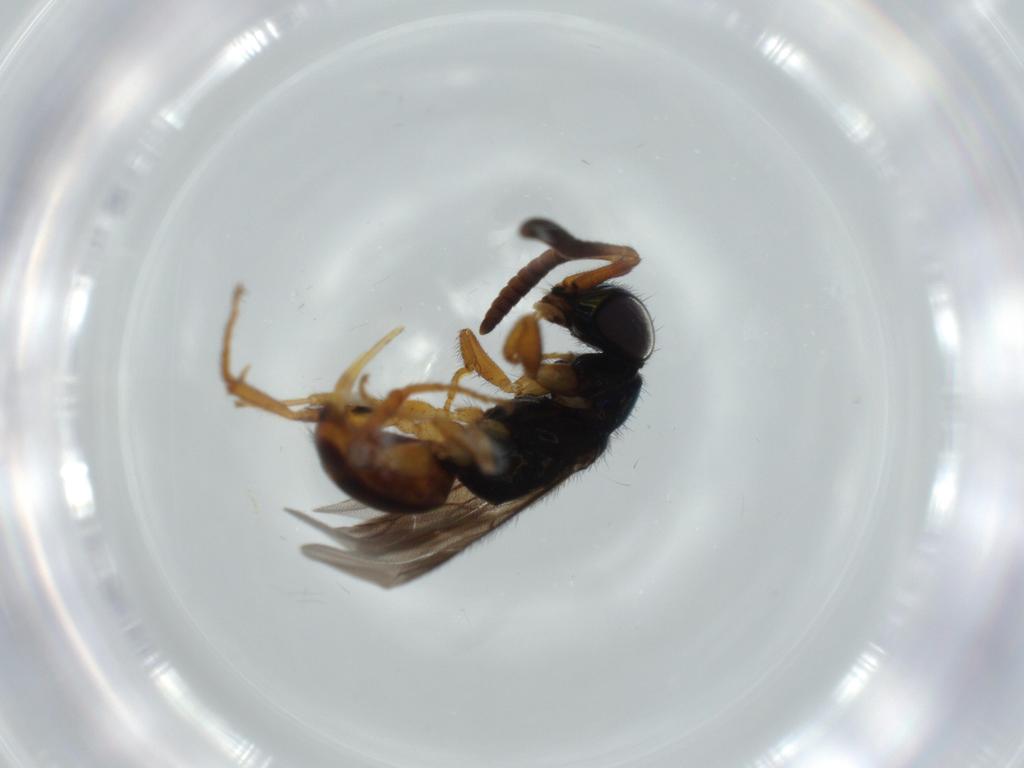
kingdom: Animalia
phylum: Arthropoda
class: Insecta
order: Hymenoptera
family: Chrysididae
